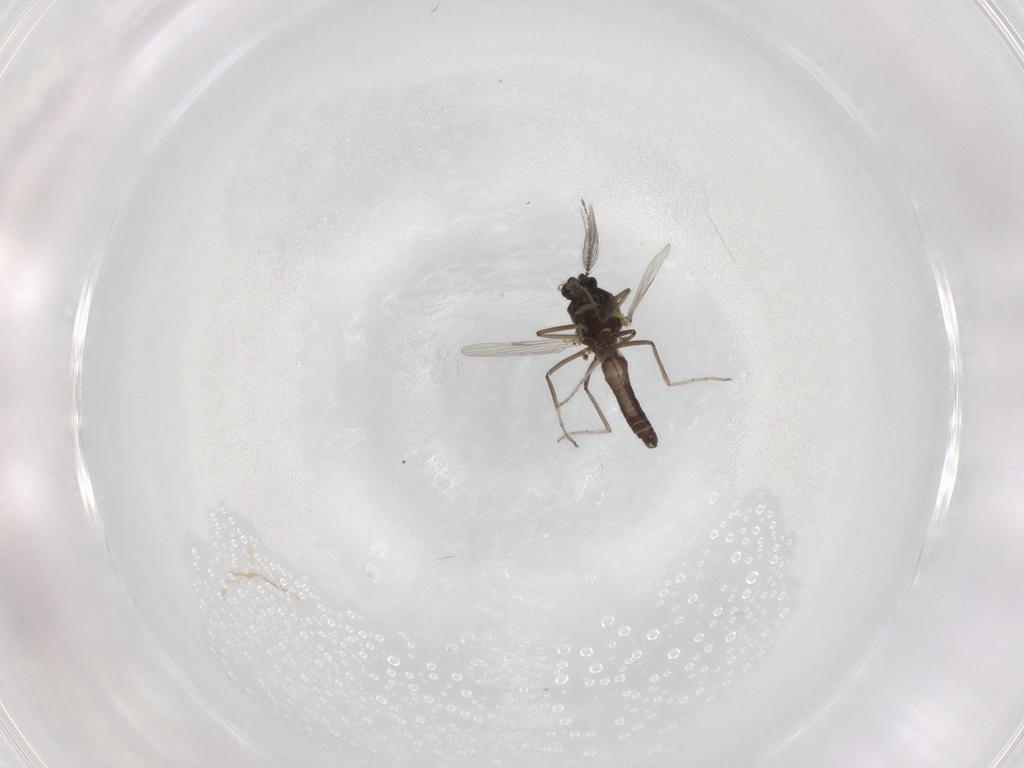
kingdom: Animalia
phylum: Arthropoda
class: Insecta
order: Diptera
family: Ceratopogonidae
